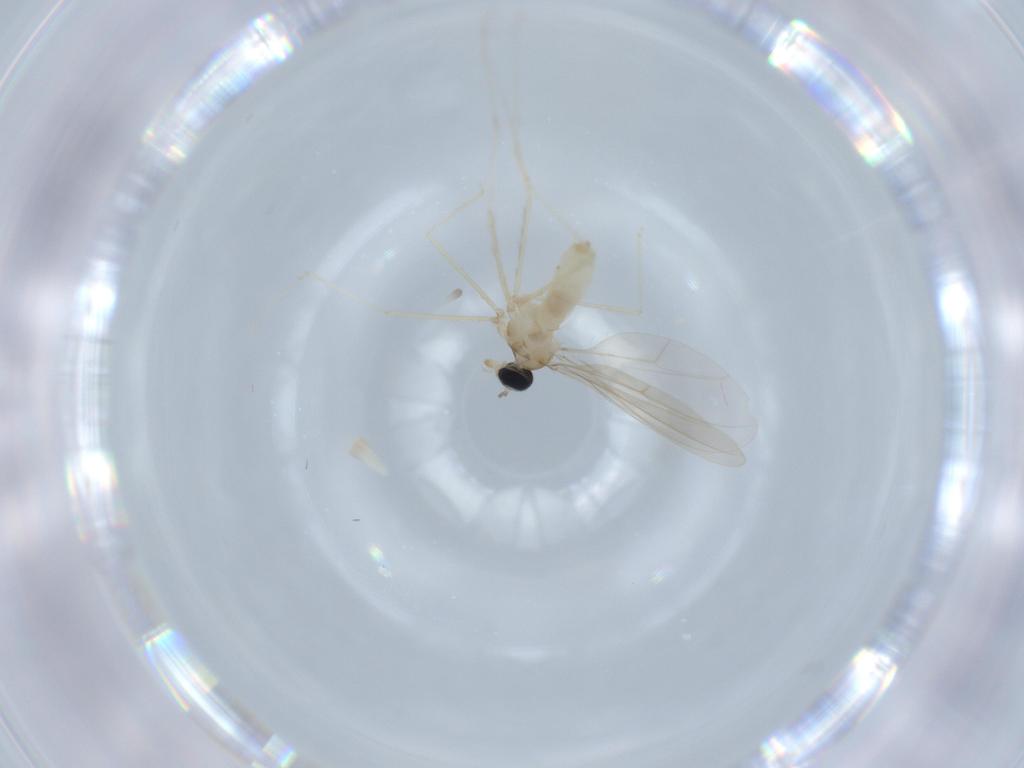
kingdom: Animalia
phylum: Arthropoda
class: Insecta
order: Diptera
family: Cecidomyiidae
